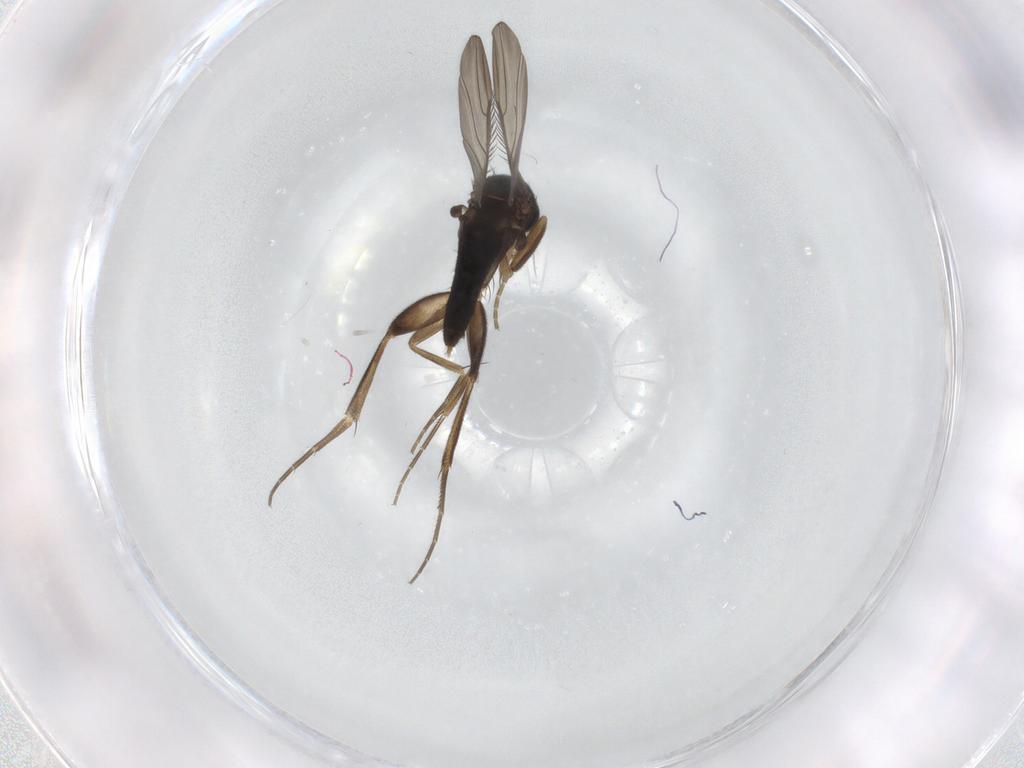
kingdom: Animalia
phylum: Arthropoda
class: Insecta
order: Diptera
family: Phoridae
